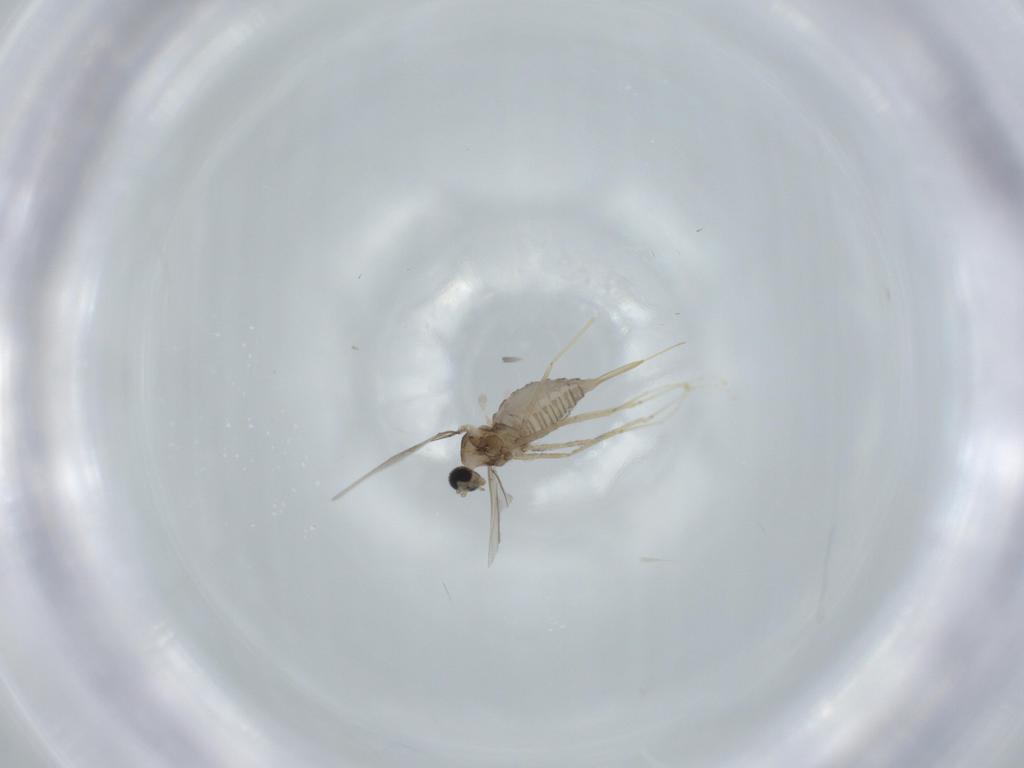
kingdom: Animalia
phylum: Arthropoda
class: Insecta
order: Diptera
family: Cecidomyiidae
